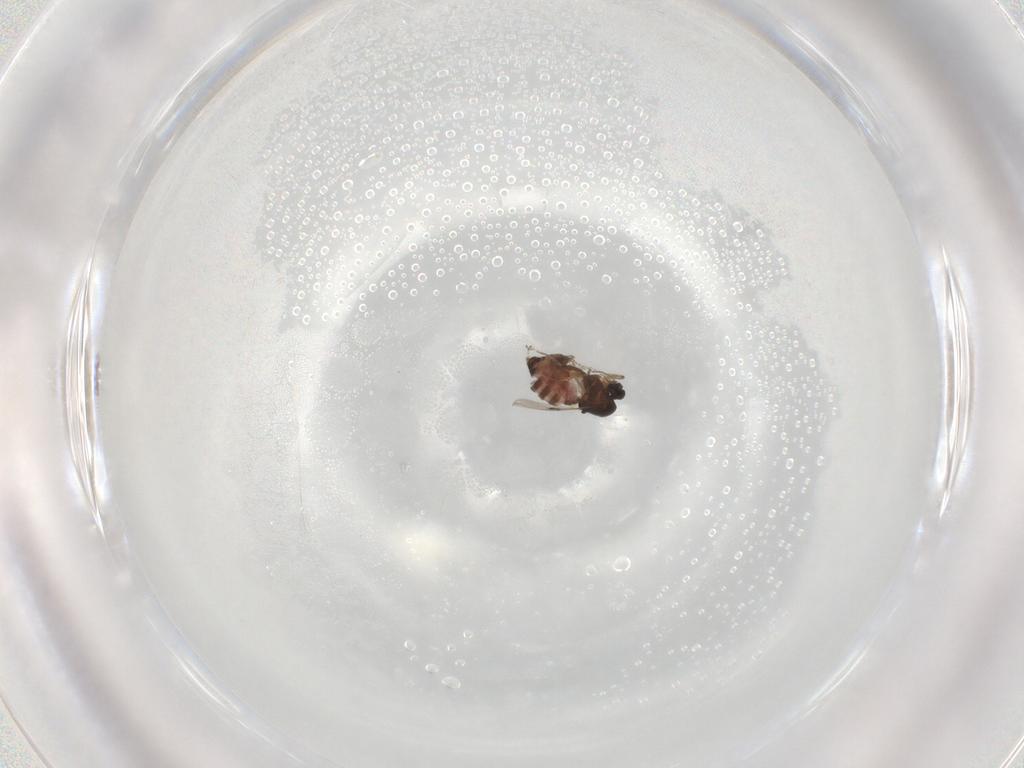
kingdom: Animalia
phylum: Arthropoda
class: Insecta
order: Diptera
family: Ceratopogonidae
